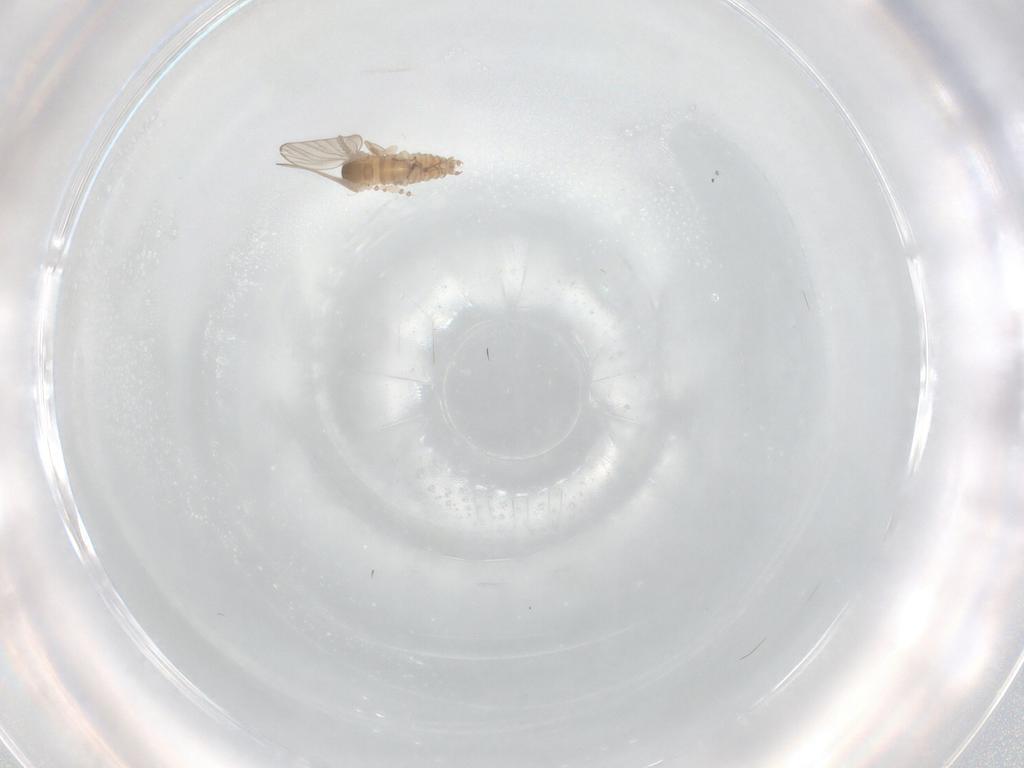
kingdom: Animalia
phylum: Arthropoda
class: Insecta
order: Diptera
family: Psychodidae
